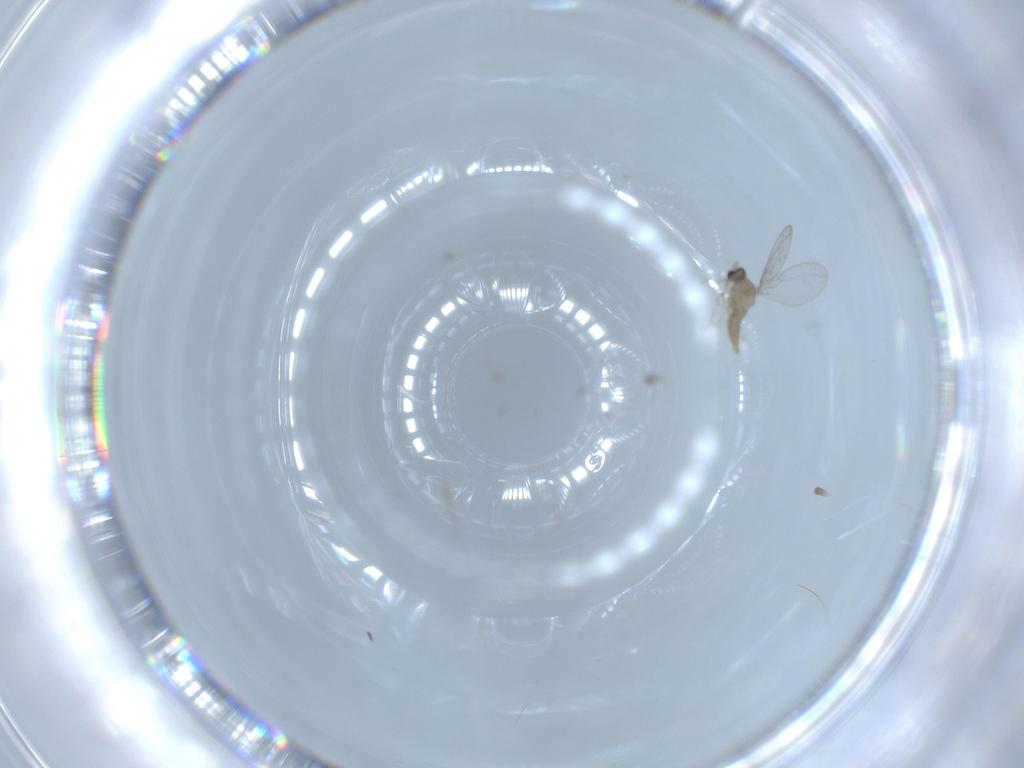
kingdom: Animalia
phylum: Arthropoda
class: Insecta
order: Diptera
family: Cecidomyiidae
